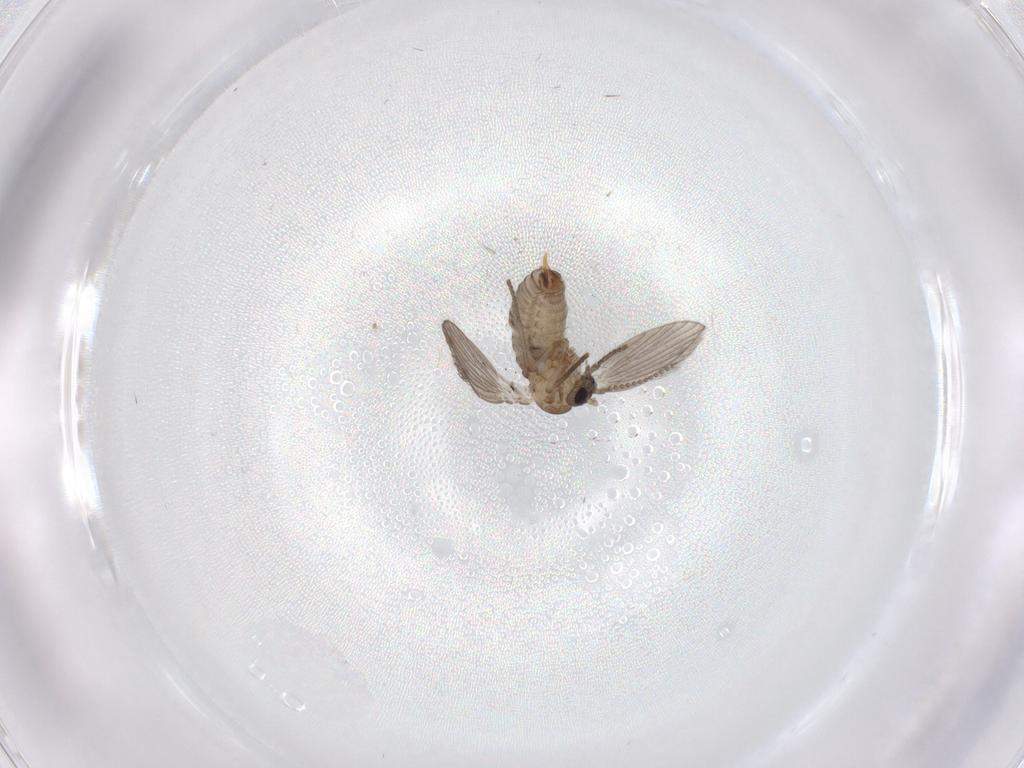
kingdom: Animalia
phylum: Arthropoda
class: Insecta
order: Diptera
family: Psychodidae
